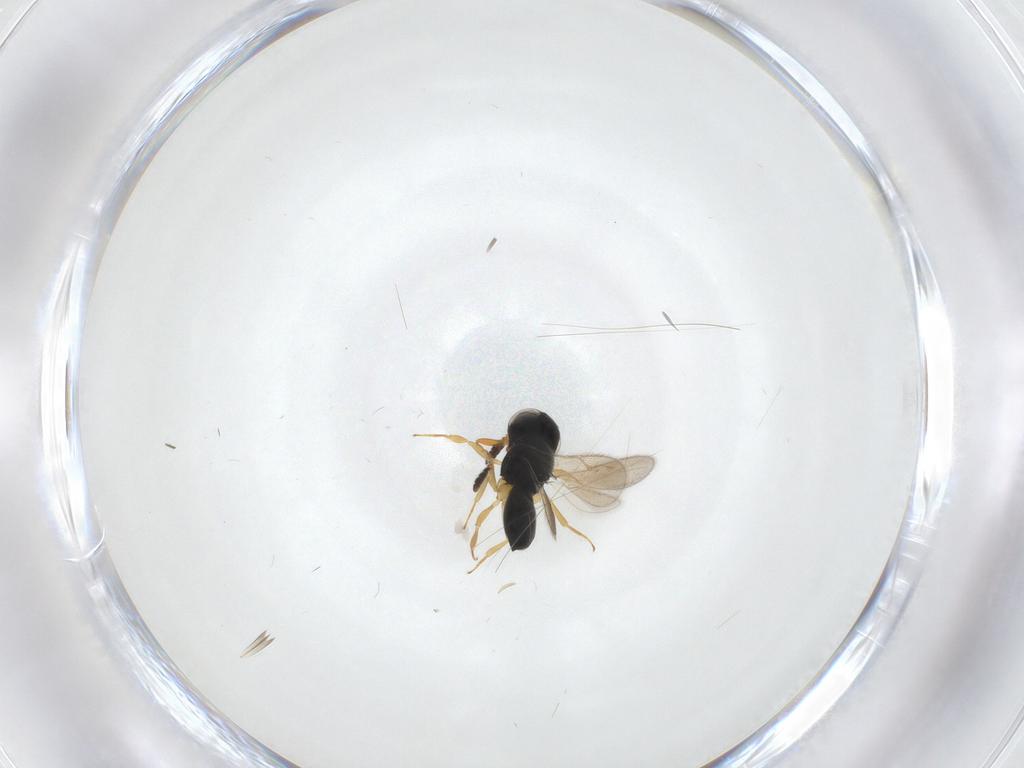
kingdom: Animalia
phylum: Arthropoda
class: Insecta
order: Hymenoptera
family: Scelionidae
